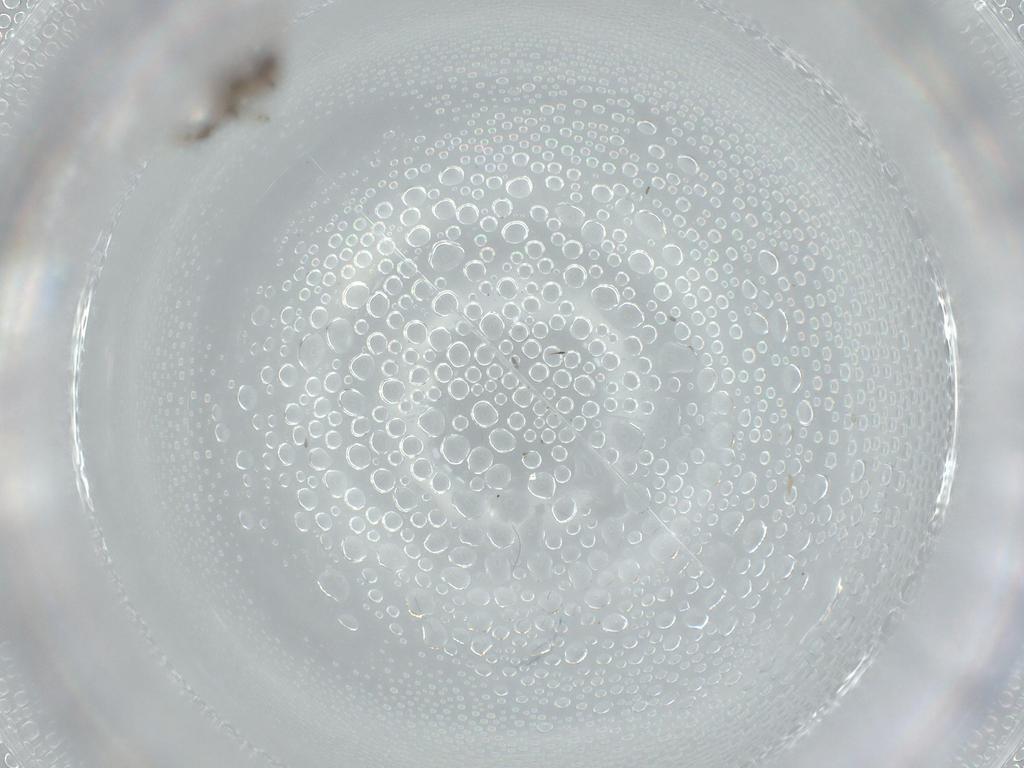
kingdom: Animalia
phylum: Arthropoda
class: Insecta
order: Diptera
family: Cecidomyiidae
